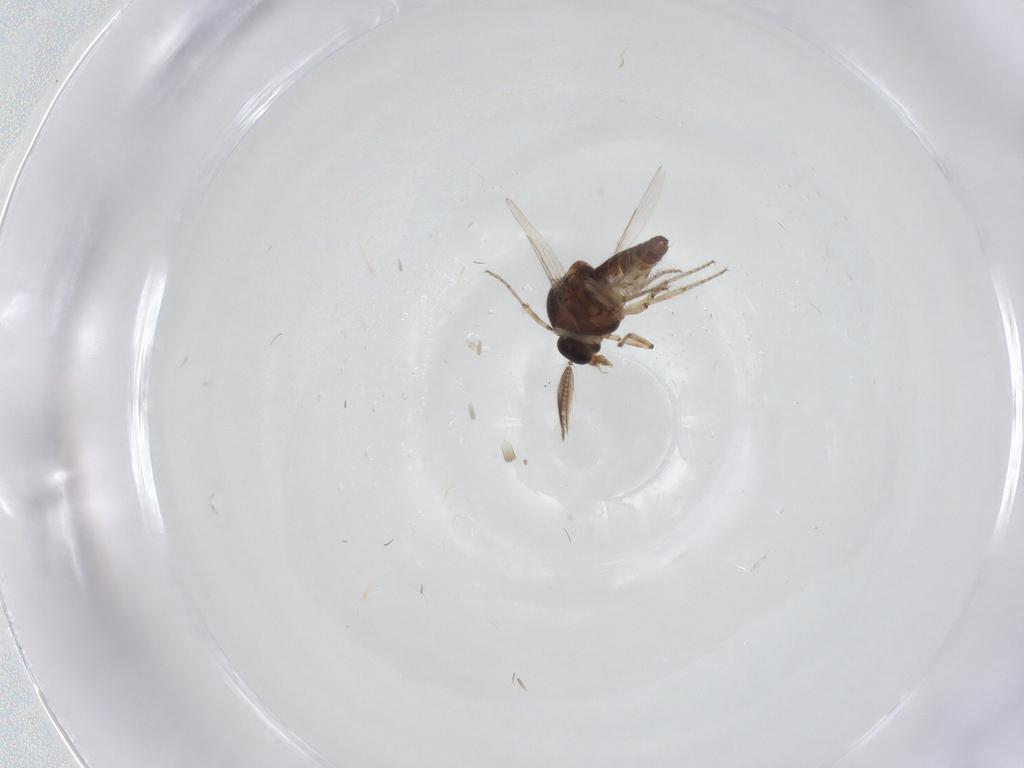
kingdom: Animalia
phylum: Arthropoda
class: Insecta
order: Diptera
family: Ceratopogonidae
